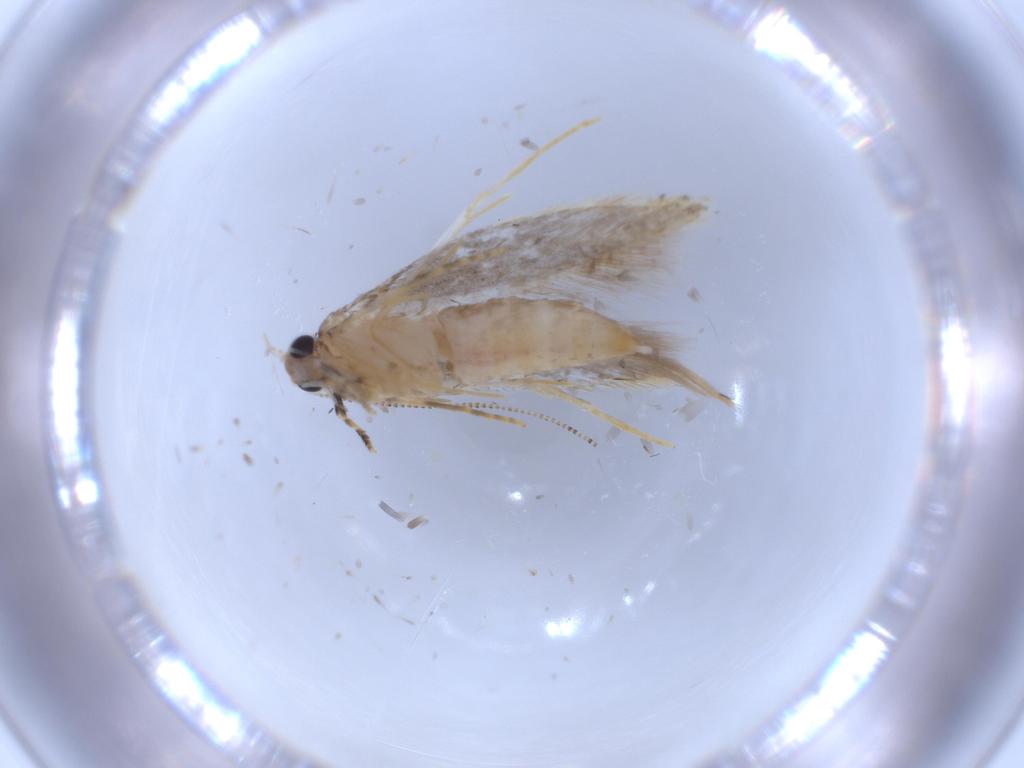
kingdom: Animalia
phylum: Arthropoda
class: Insecta
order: Lepidoptera
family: Tineidae
